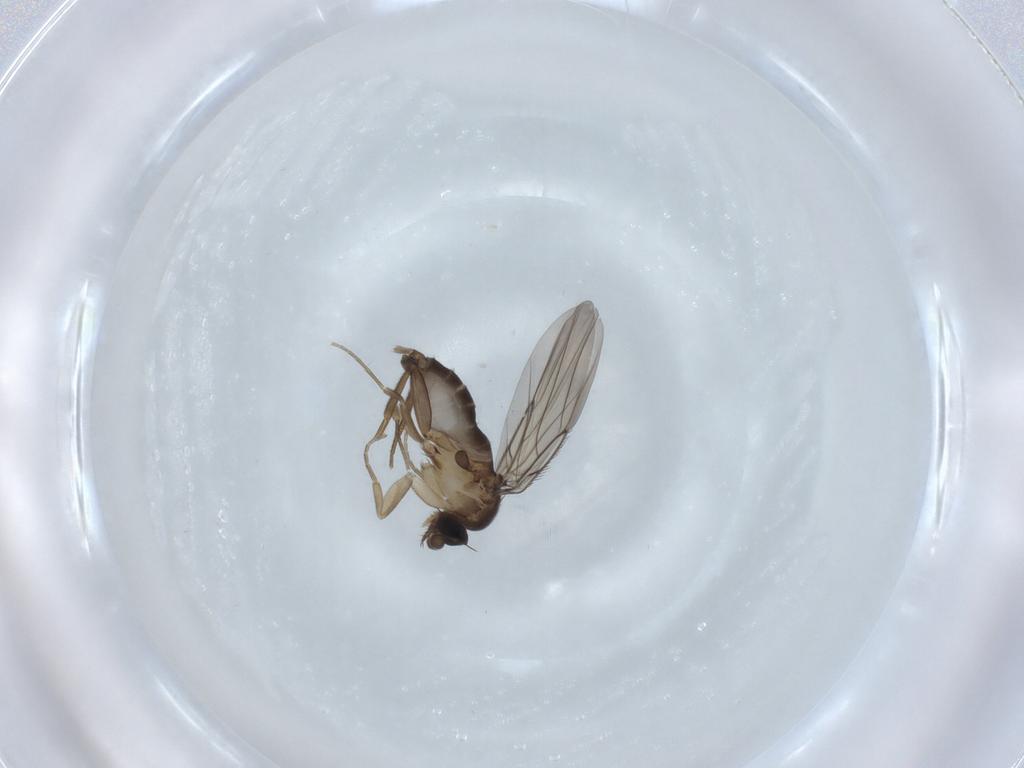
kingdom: Animalia
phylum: Arthropoda
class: Insecta
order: Diptera
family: Phoridae
